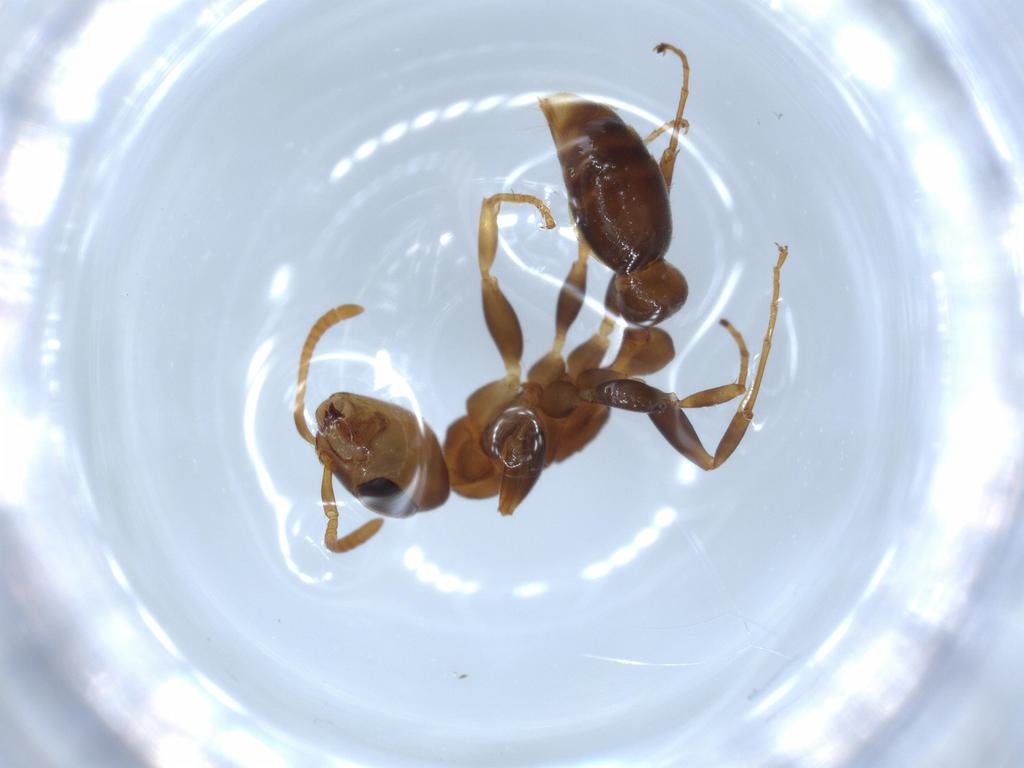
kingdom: Animalia
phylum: Arthropoda
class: Insecta
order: Hymenoptera
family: Formicidae
